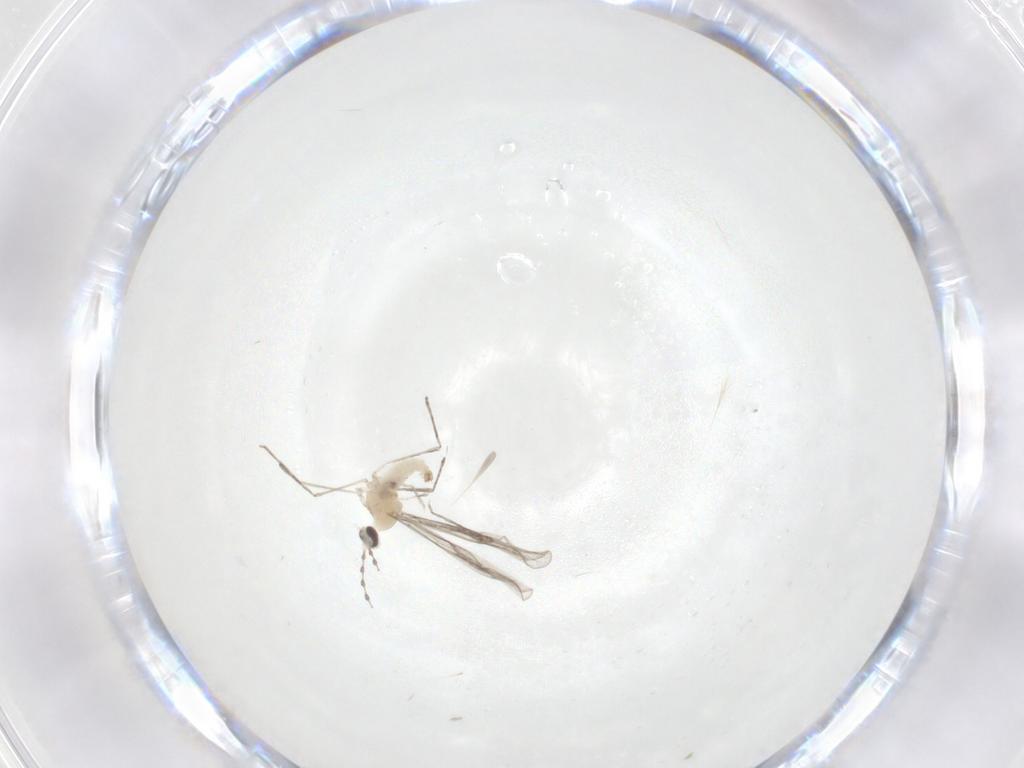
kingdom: Animalia
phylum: Arthropoda
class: Insecta
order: Diptera
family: Cecidomyiidae
